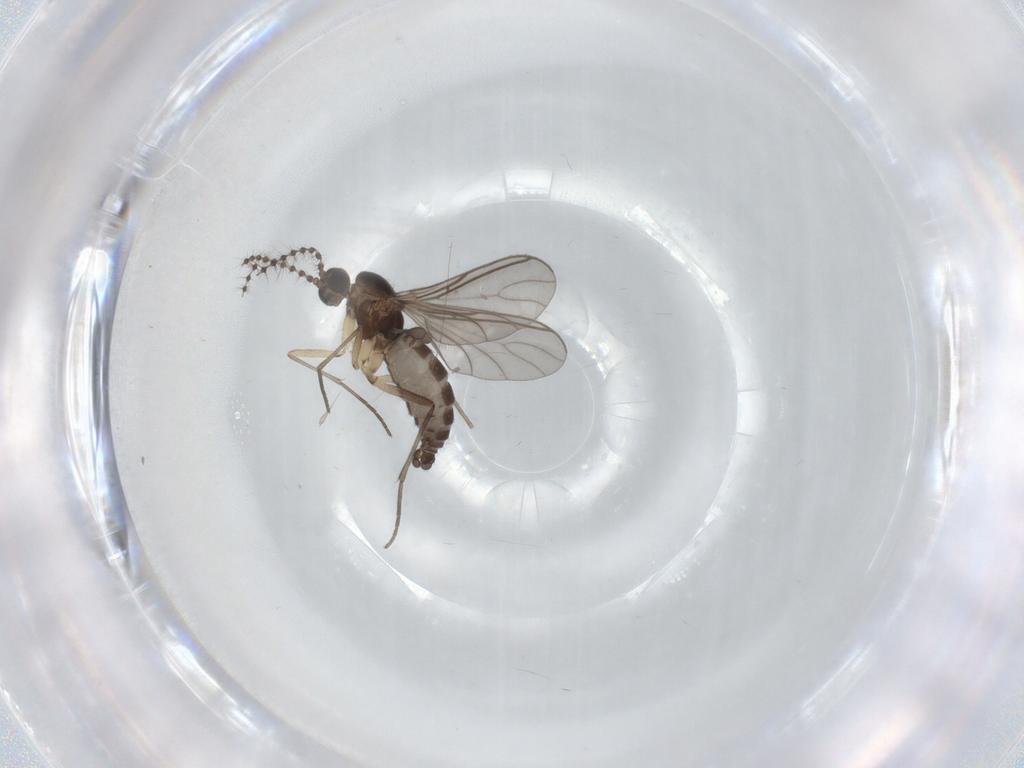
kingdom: Animalia
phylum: Arthropoda
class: Insecta
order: Diptera
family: Sciaridae
